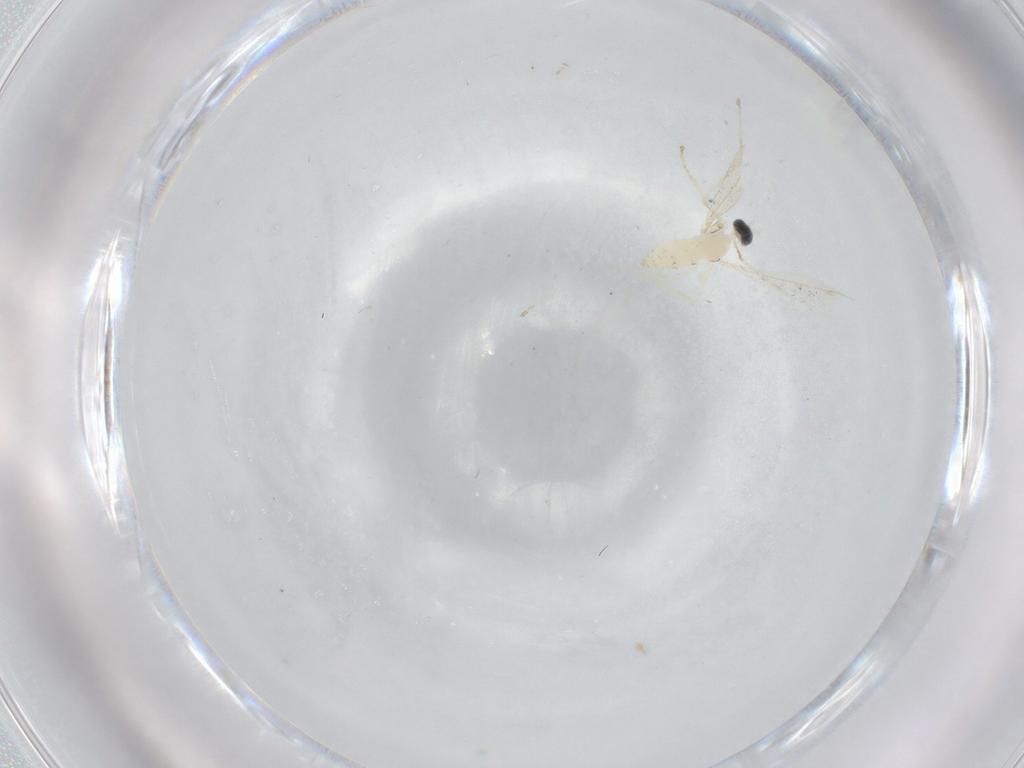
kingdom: Animalia
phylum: Arthropoda
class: Insecta
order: Diptera
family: Cecidomyiidae
